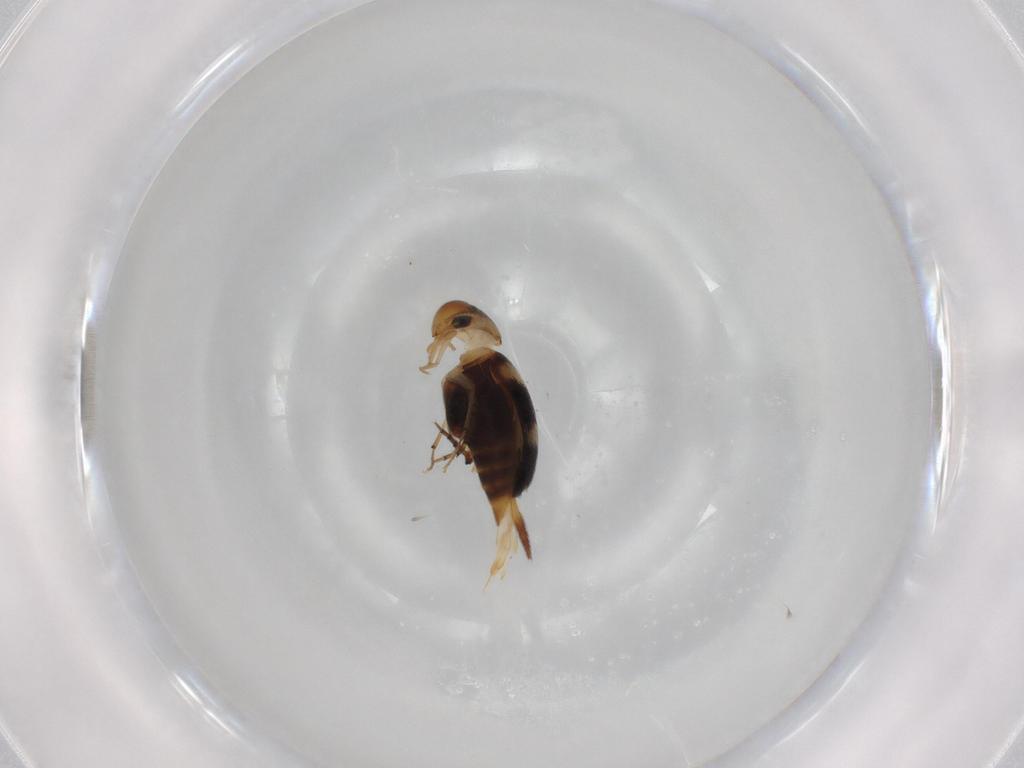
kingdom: Animalia
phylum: Arthropoda
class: Insecta
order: Coleoptera
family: Mordellidae
